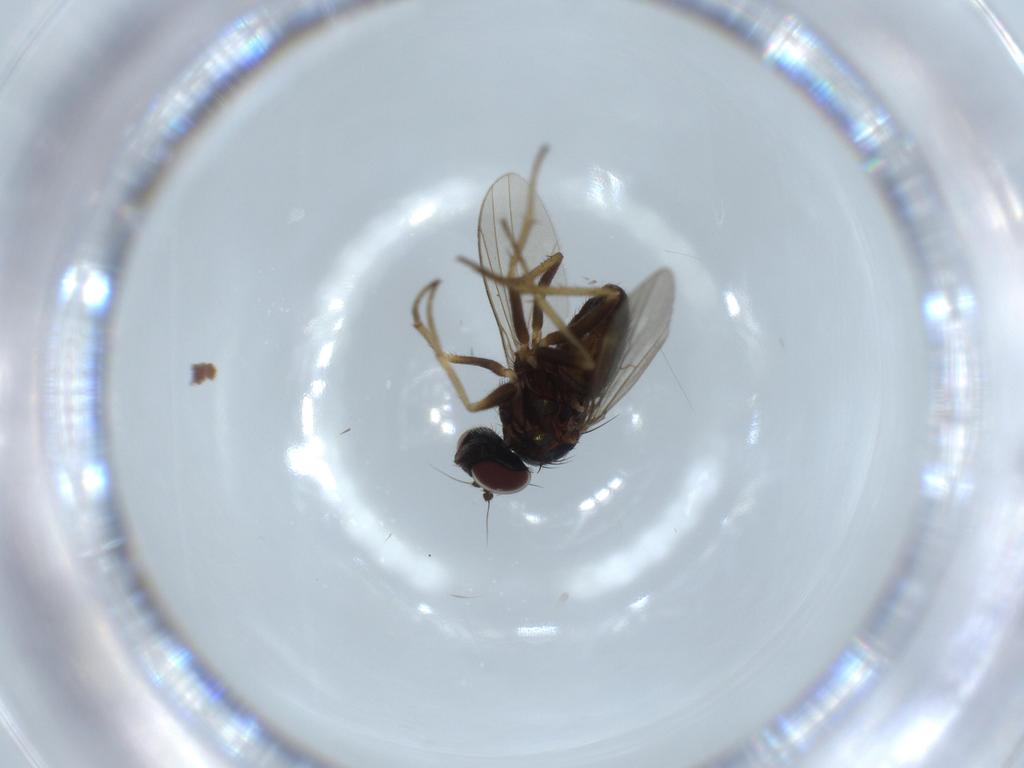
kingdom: Animalia
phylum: Arthropoda
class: Insecta
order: Diptera
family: Dolichopodidae
